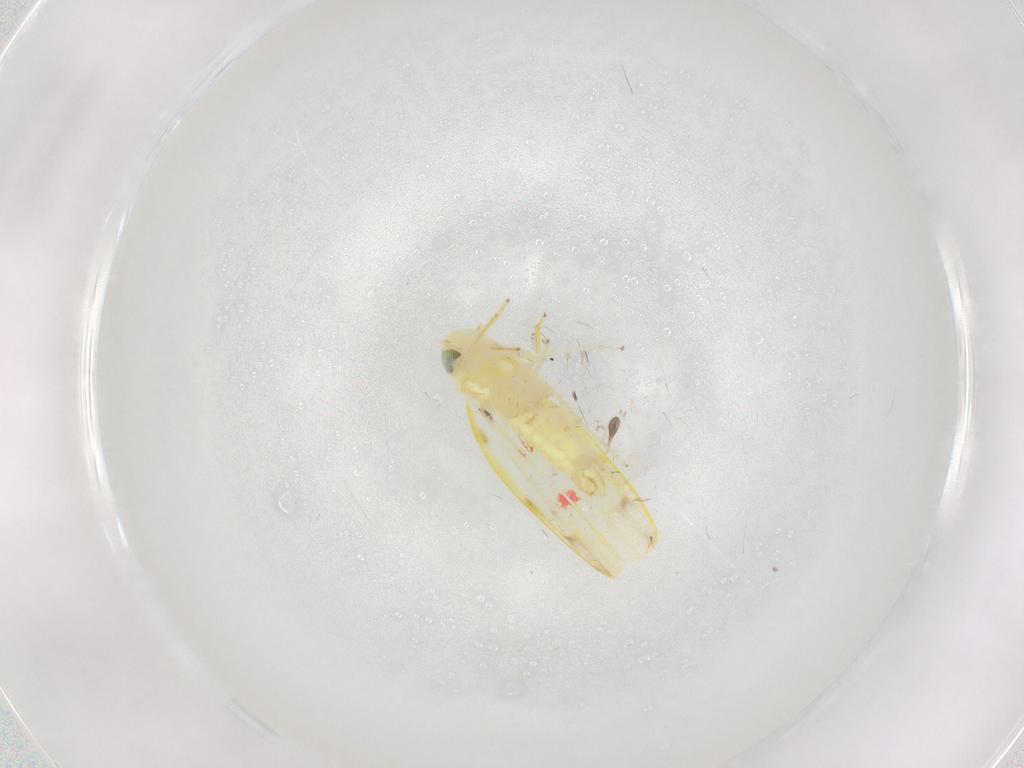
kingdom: Animalia
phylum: Arthropoda
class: Insecta
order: Hemiptera
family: Cicadellidae
